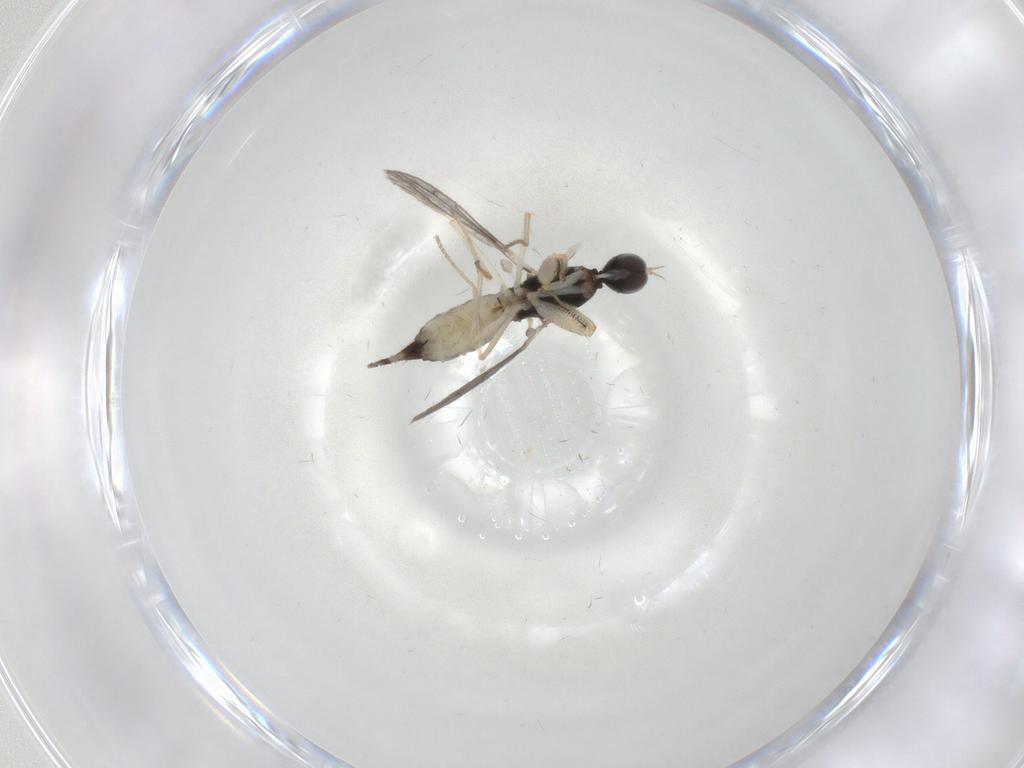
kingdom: Animalia
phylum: Arthropoda
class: Insecta
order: Diptera
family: Empididae
